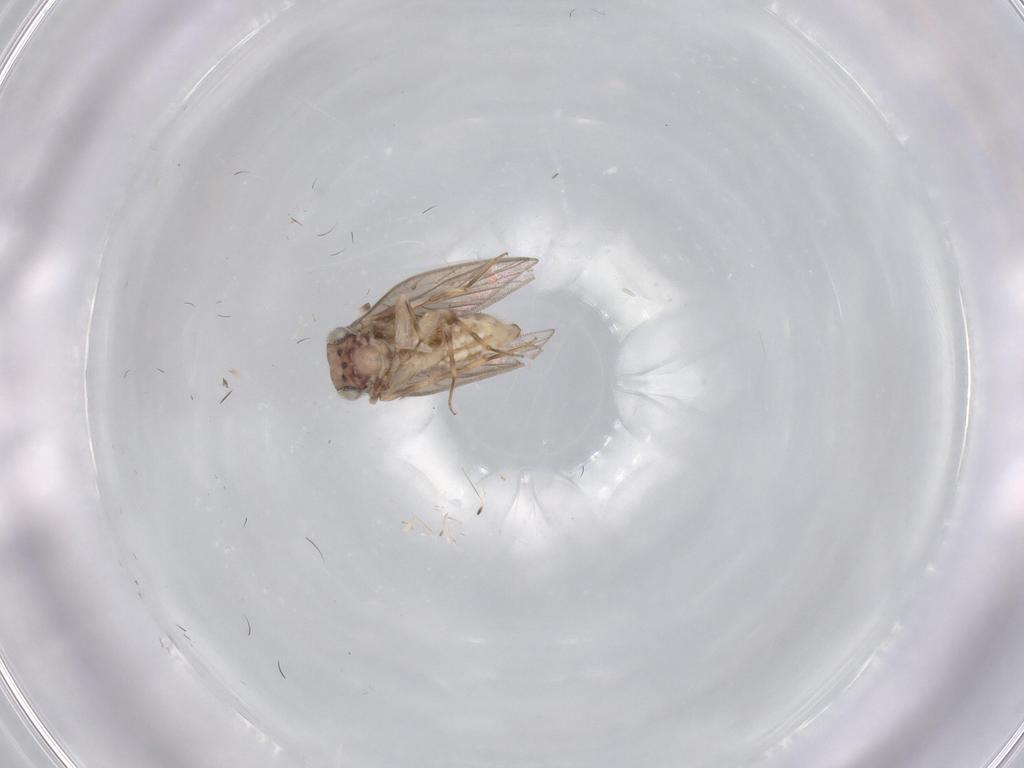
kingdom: Animalia
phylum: Arthropoda
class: Insecta
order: Psocodea
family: Lepidopsocidae
